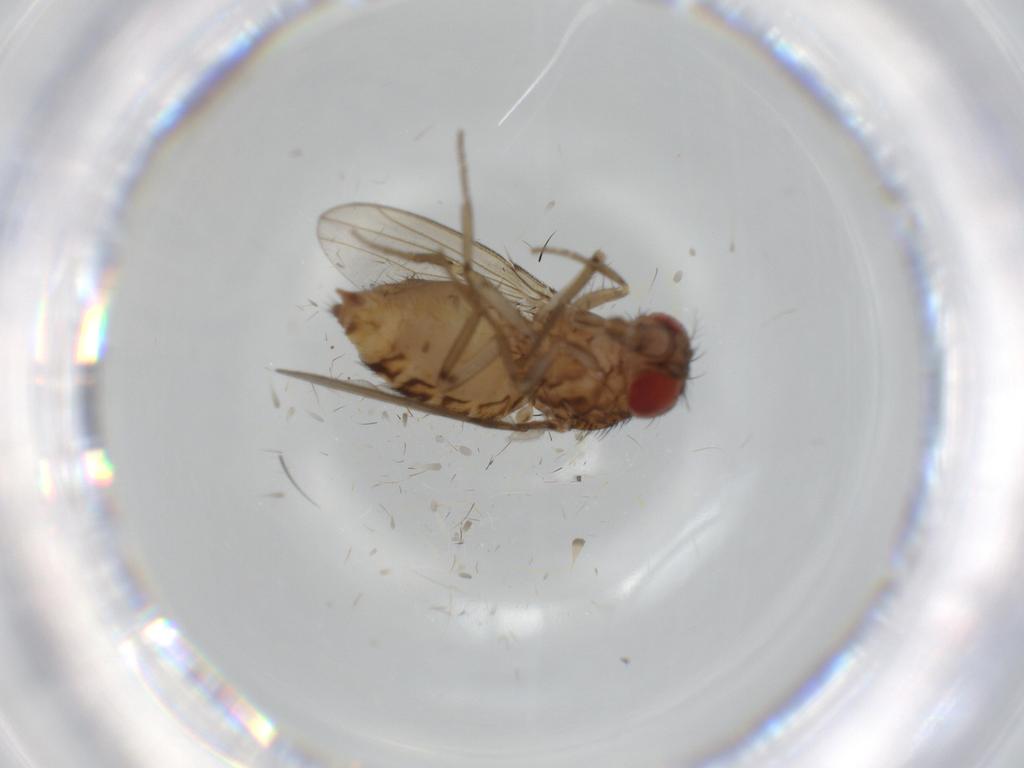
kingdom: Animalia
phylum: Arthropoda
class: Insecta
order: Diptera
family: Drosophilidae
